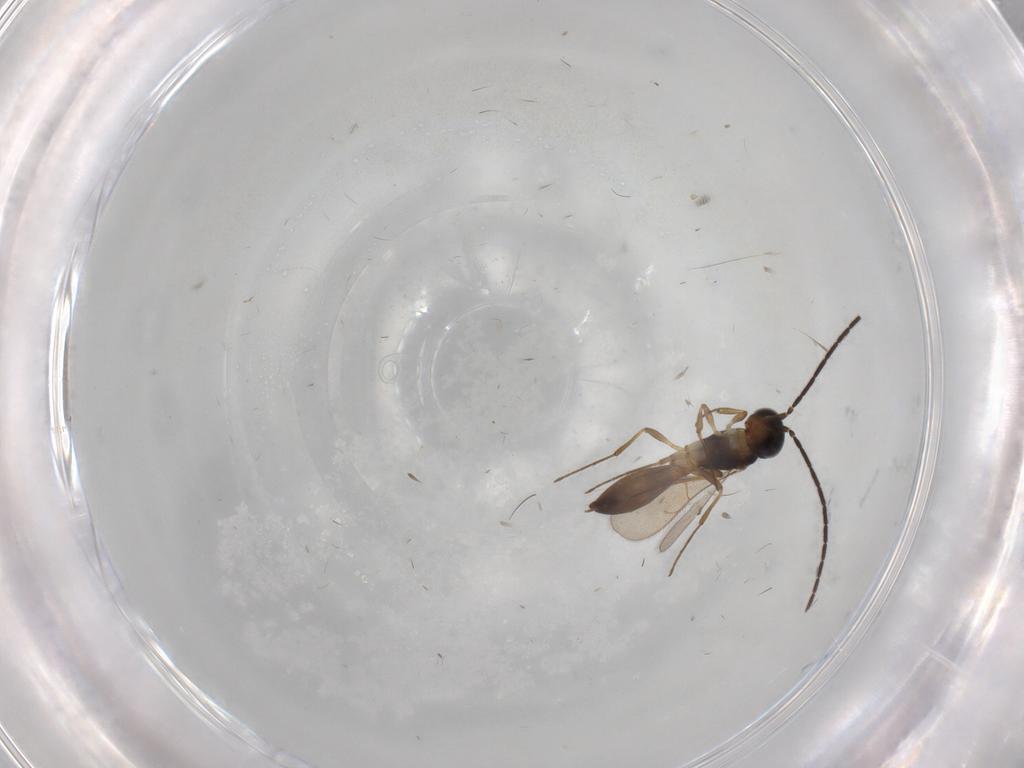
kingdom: Animalia
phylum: Arthropoda
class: Insecta
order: Hymenoptera
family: Scelionidae
